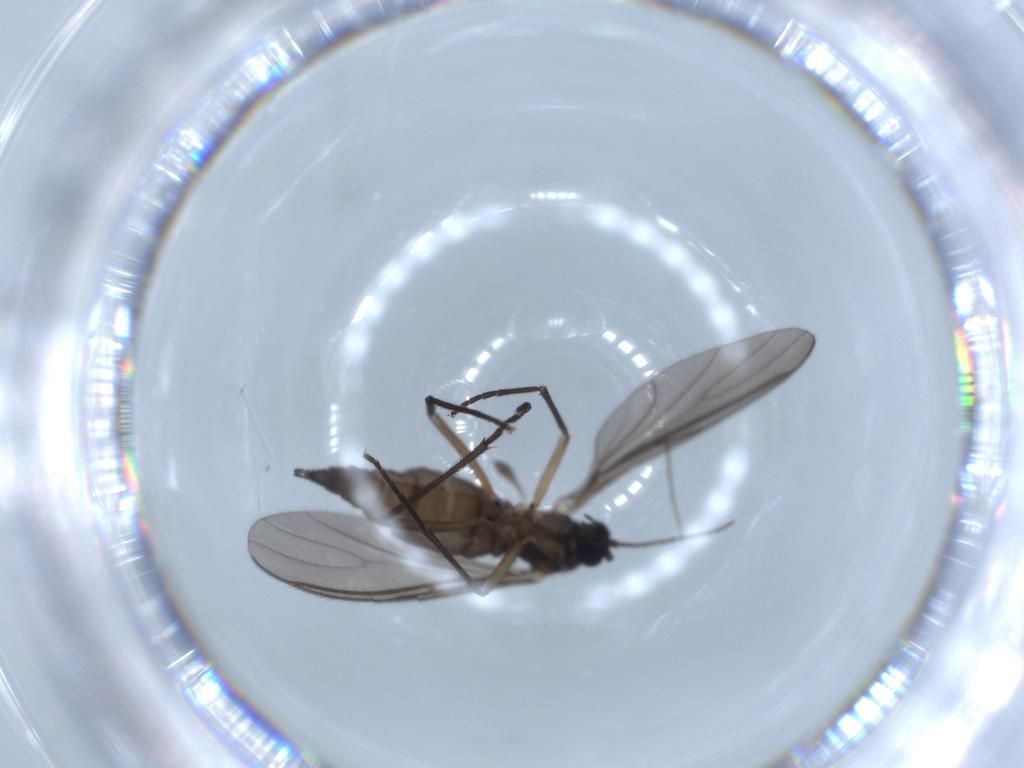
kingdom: Animalia
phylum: Arthropoda
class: Insecta
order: Diptera
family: Sciaridae
